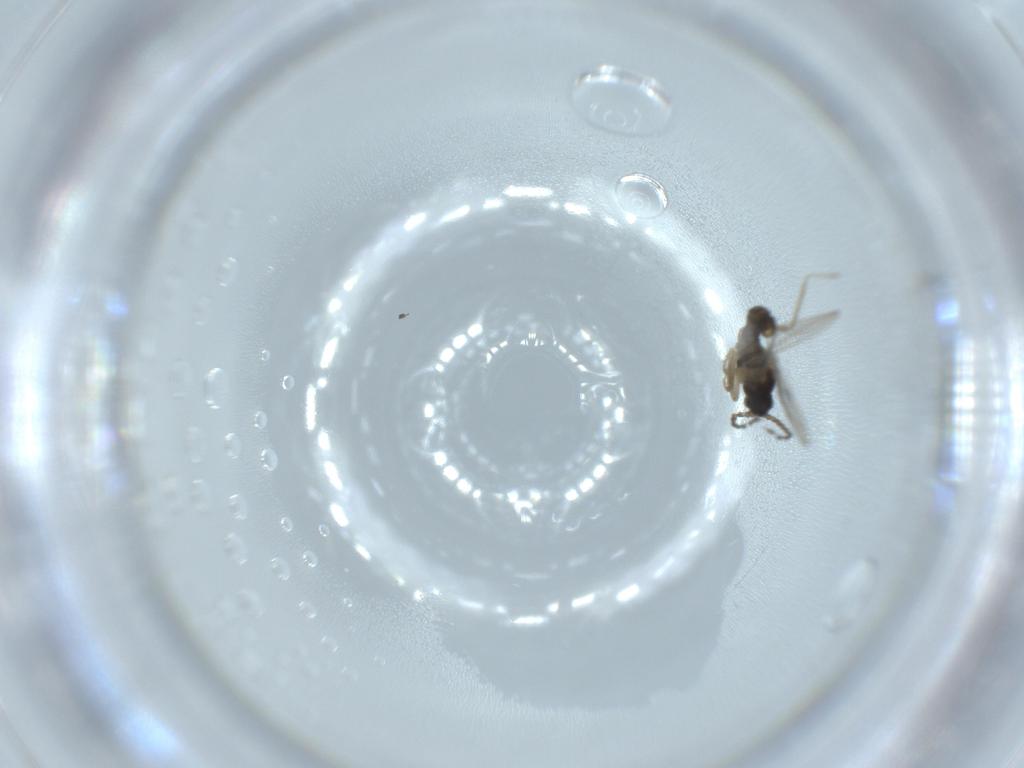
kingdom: Animalia
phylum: Arthropoda
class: Insecta
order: Diptera
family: Cecidomyiidae
